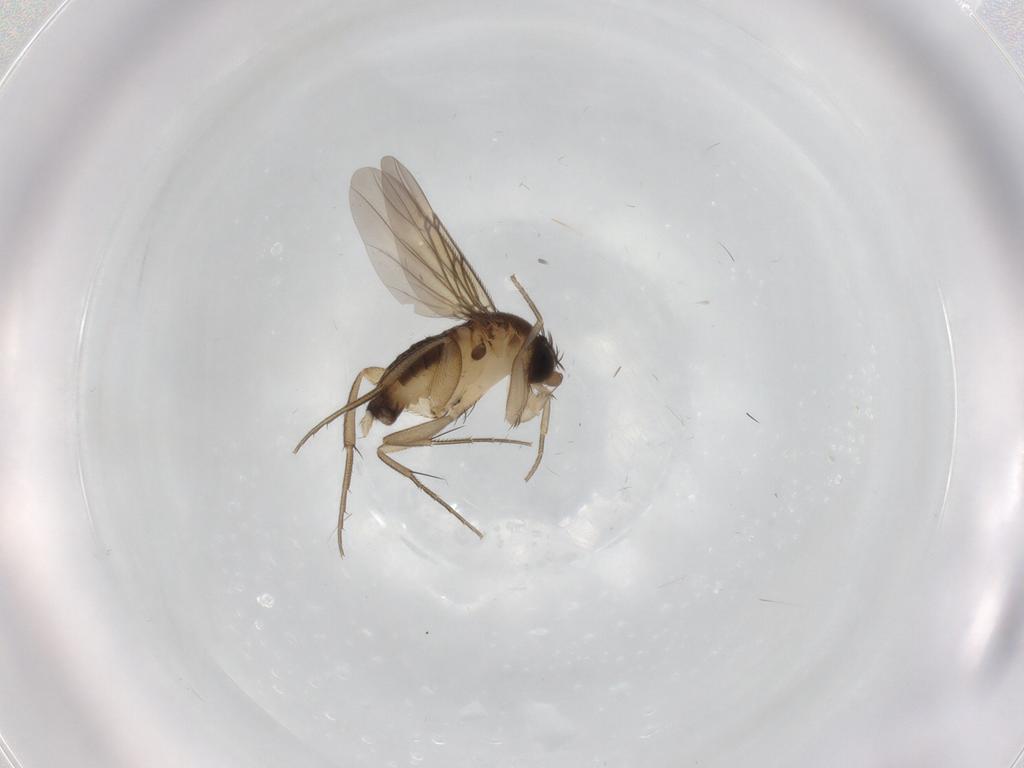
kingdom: Animalia
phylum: Arthropoda
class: Insecta
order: Diptera
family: Phoridae
